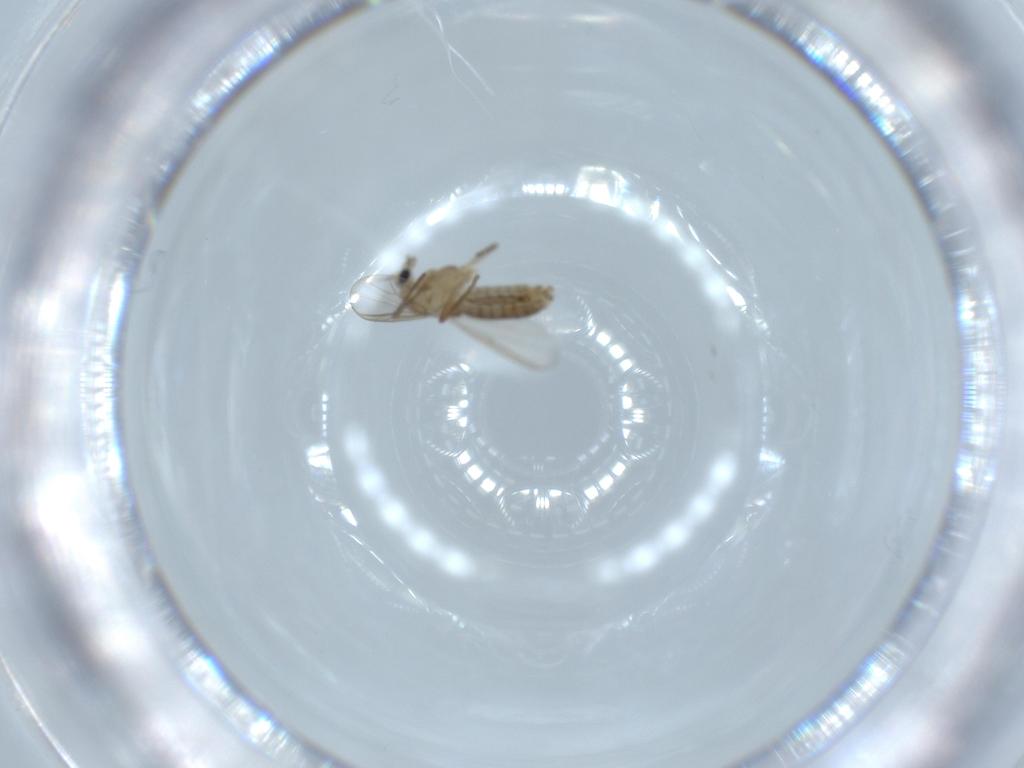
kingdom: Animalia
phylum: Arthropoda
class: Insecta
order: Diptera
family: Chironomidae
